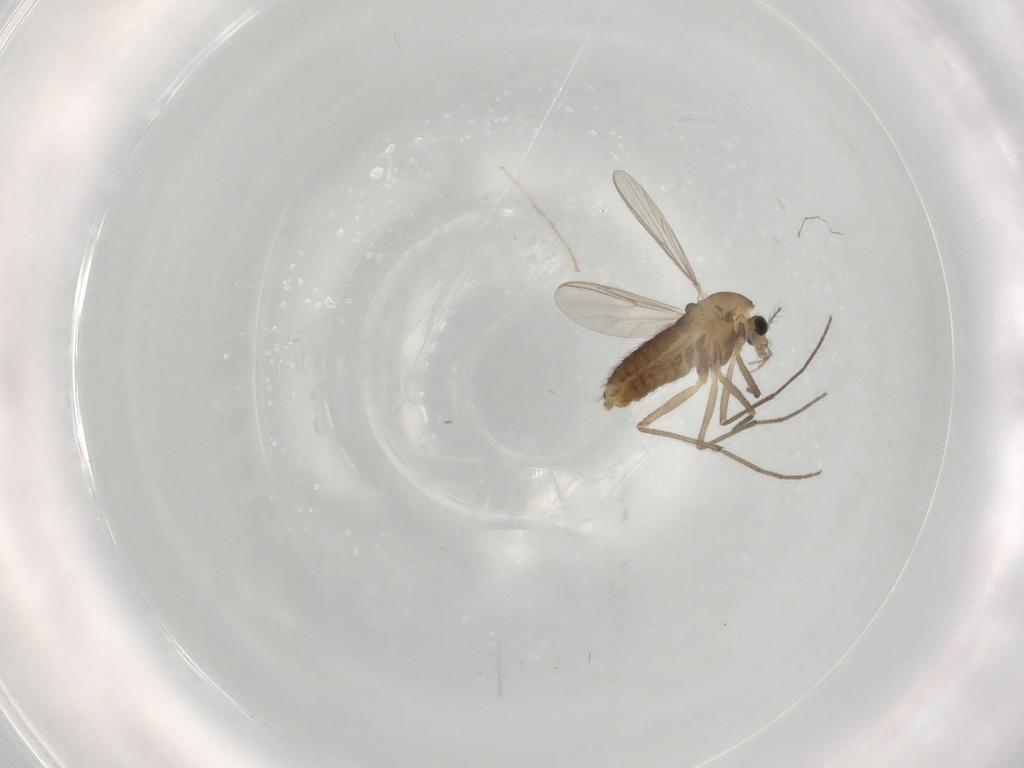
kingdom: Animalia
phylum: Arthropoda
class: Insecta
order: Diptera
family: Chironomidae
